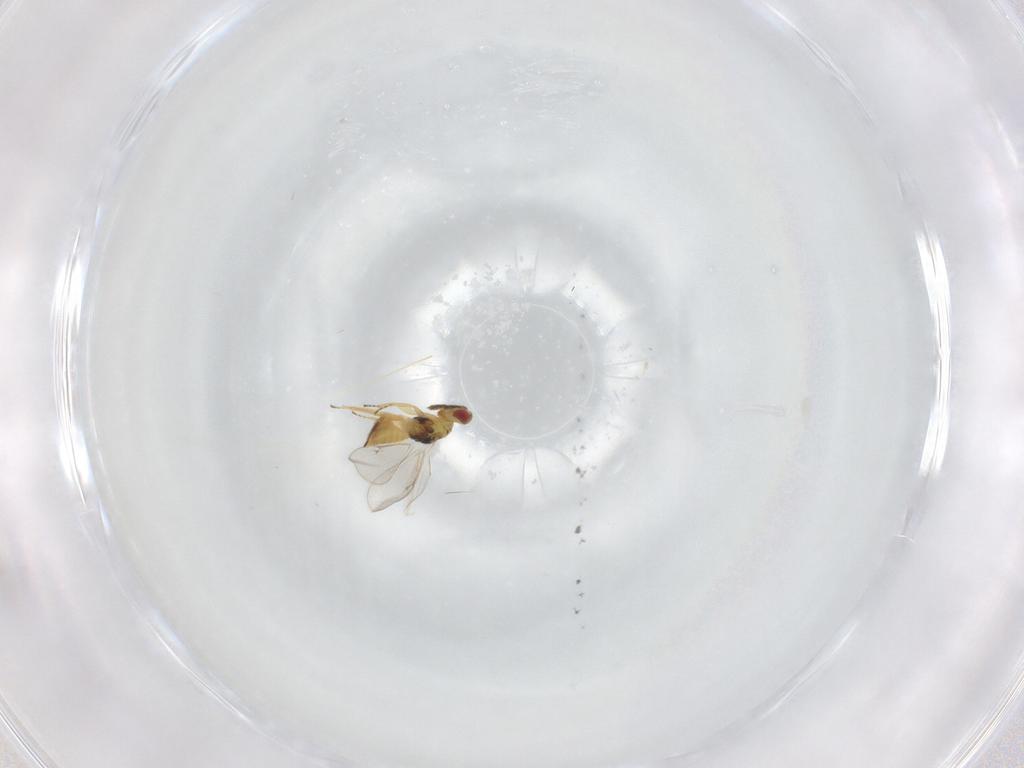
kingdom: Animalia
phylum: Arthropoda
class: Insecta
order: Hymenoptera
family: Eulophidae
